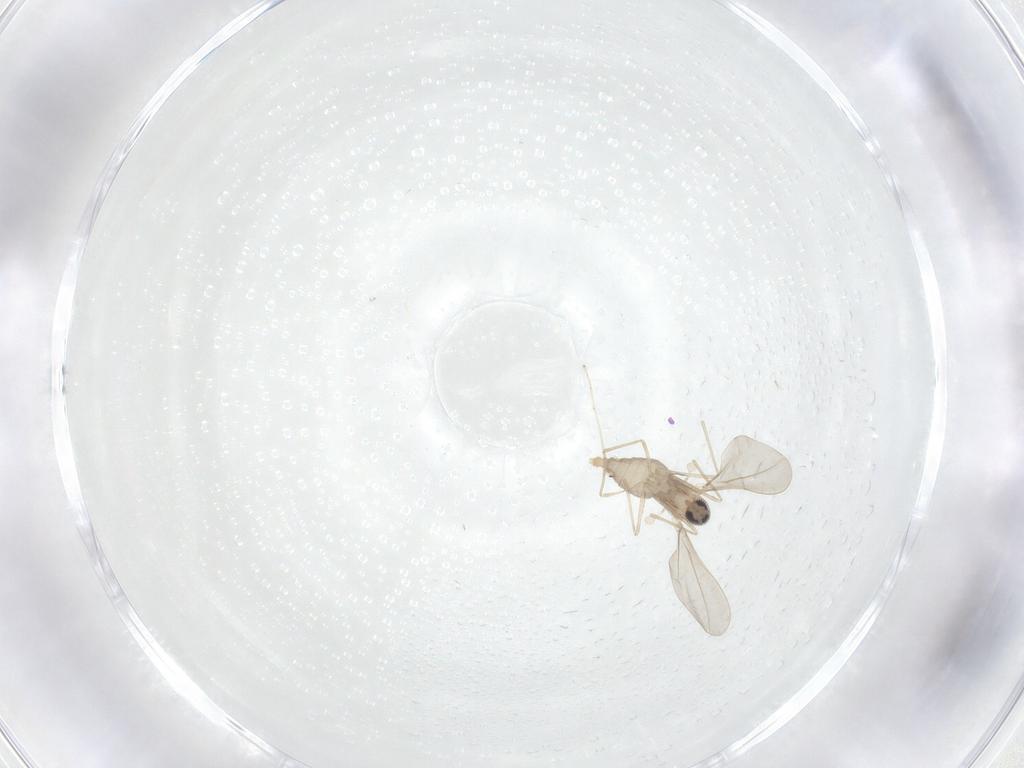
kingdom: Animalia
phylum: Arthropoda
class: Insecta
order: Diptera
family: Cecidomyiidae
